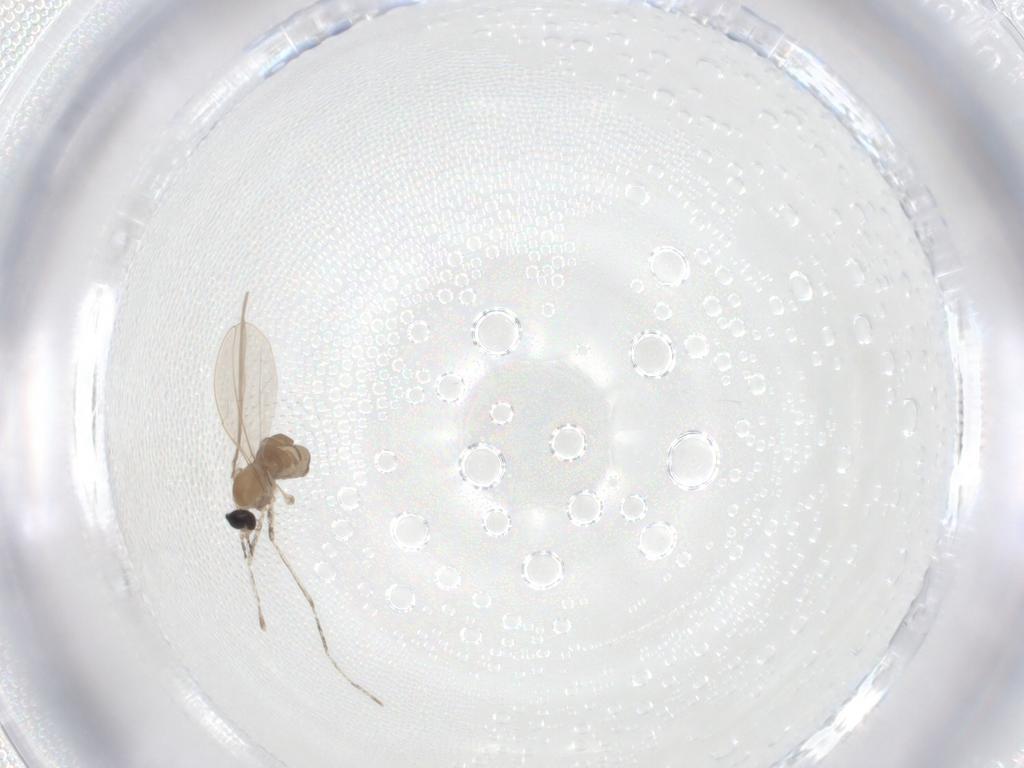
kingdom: Animalia
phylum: Arthropoda
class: Insecta
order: Diptera
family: Cecidomyiidae
